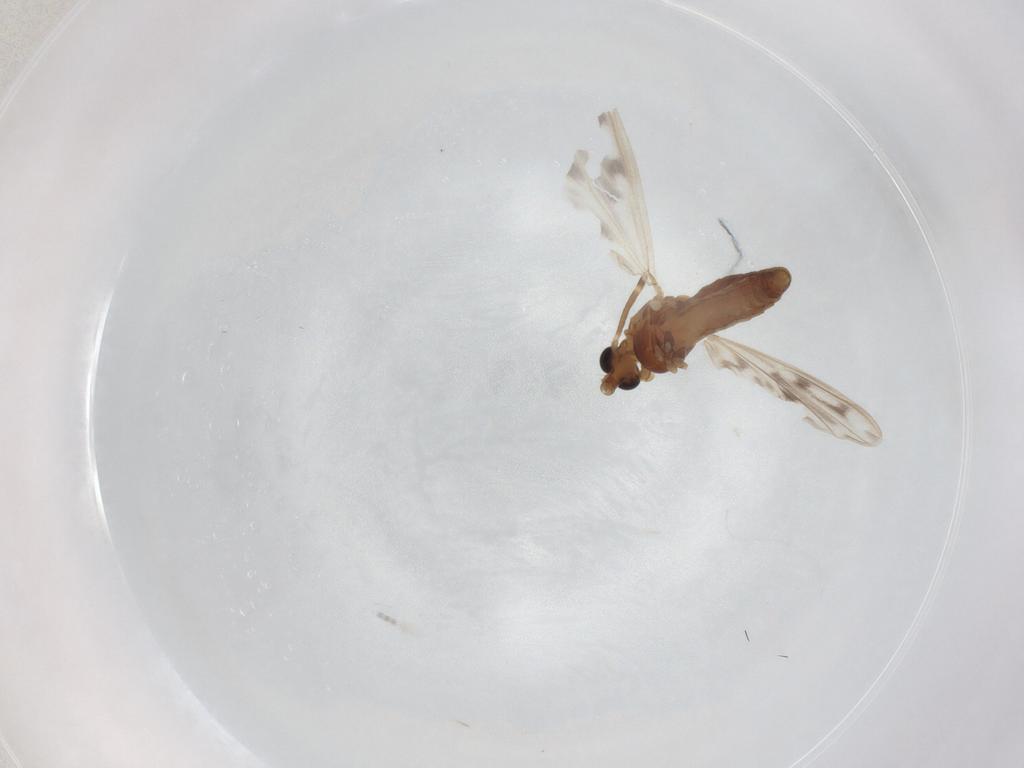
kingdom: Animalia
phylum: Arthropoda
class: Insecta
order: Diptera
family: Chironomidae
